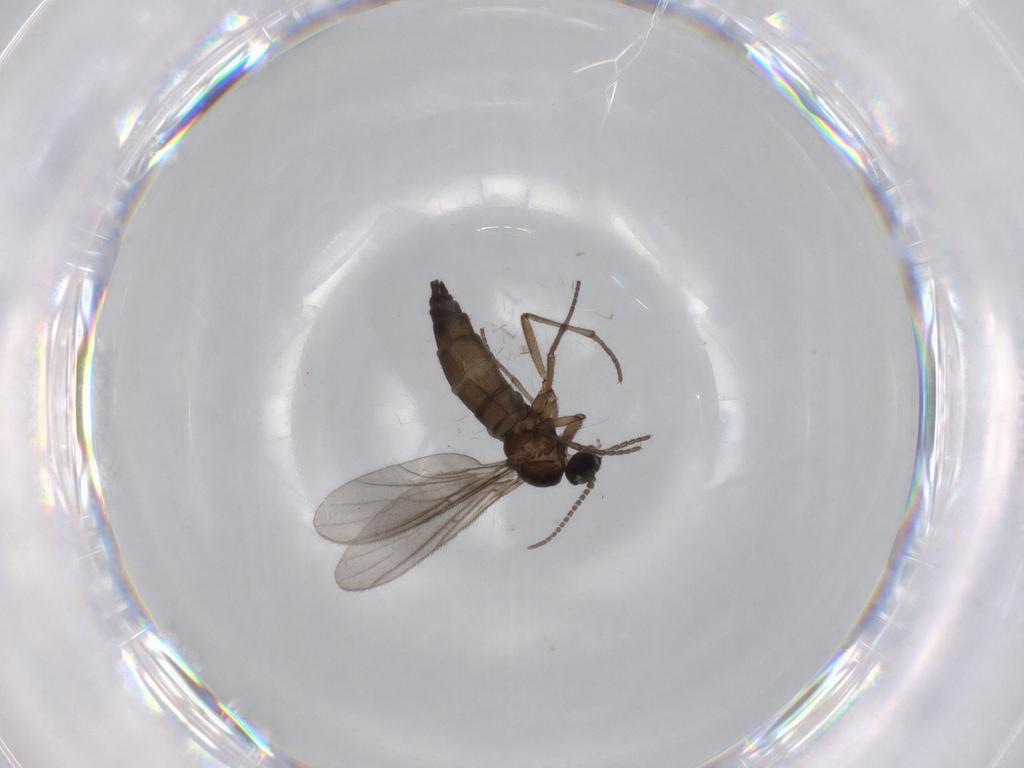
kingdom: Animalia
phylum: Arthropoda
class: Insecta
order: Diptera
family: Sciaridae
